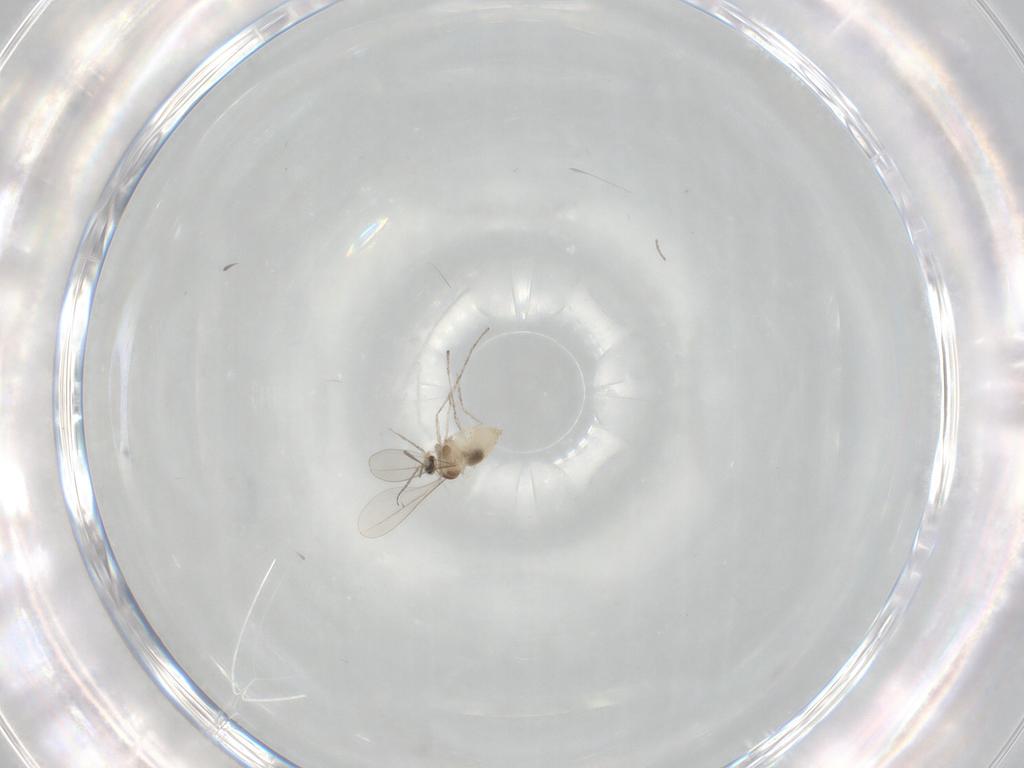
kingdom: Animalia
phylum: Arthropoda
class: Insecta
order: Diptera
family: Cecidomyiidae
